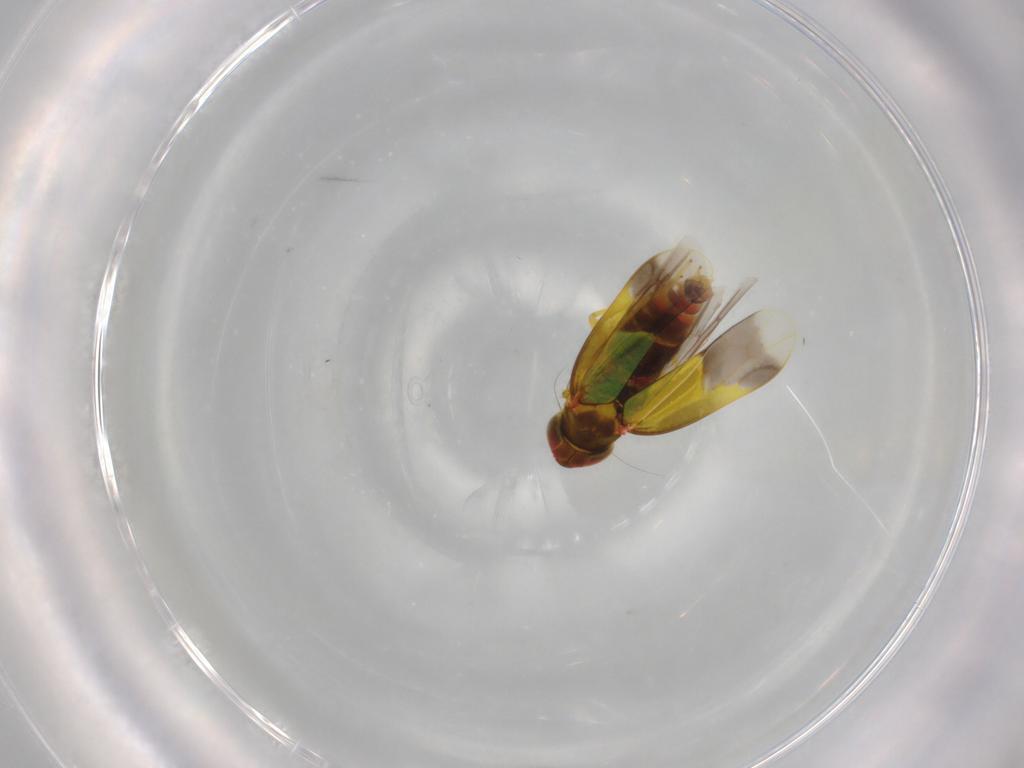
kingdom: Animalia
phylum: Arthropoda
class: Insecta
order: Hemiptera
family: Cicadellidae
